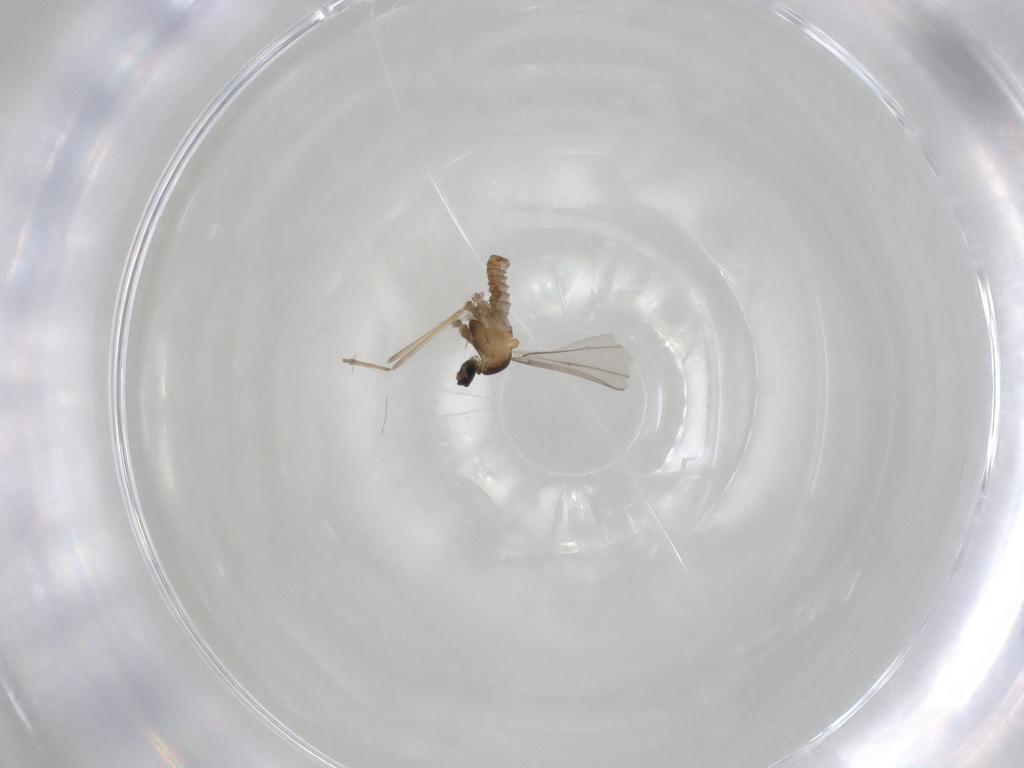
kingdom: Animalia
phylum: Arthropoda
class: Insecta
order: Diptera
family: Cecidomyiidae
